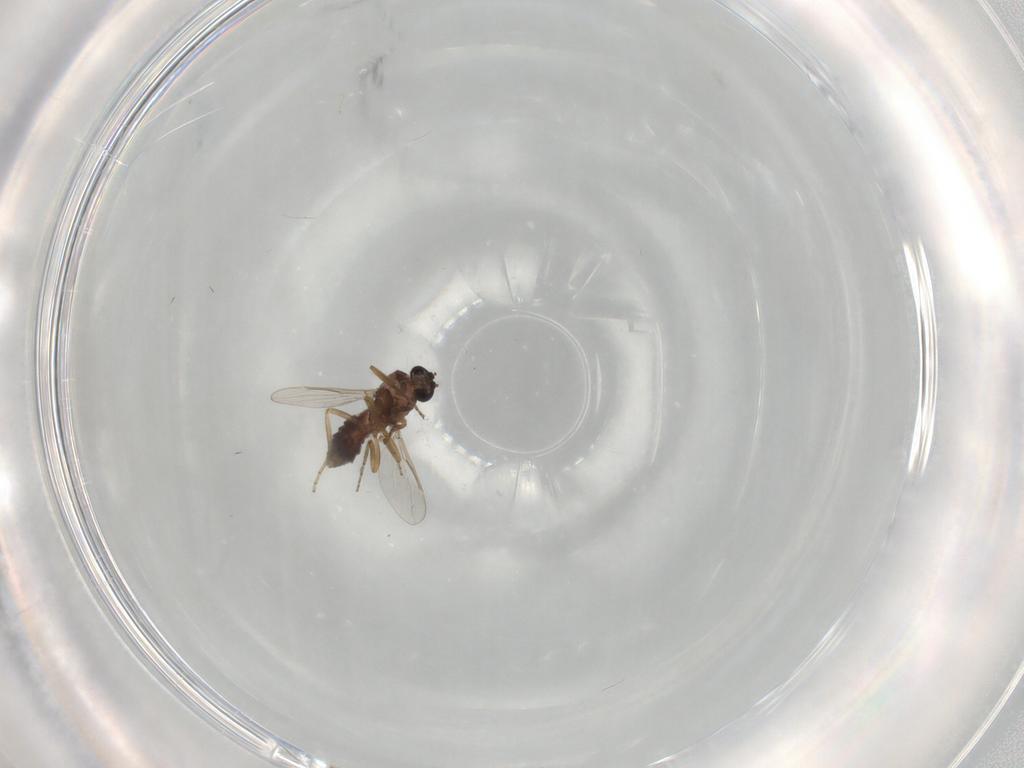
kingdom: Animalia
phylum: Arthropoda
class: Insecta
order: Diptera
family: Ceratopogonidae
